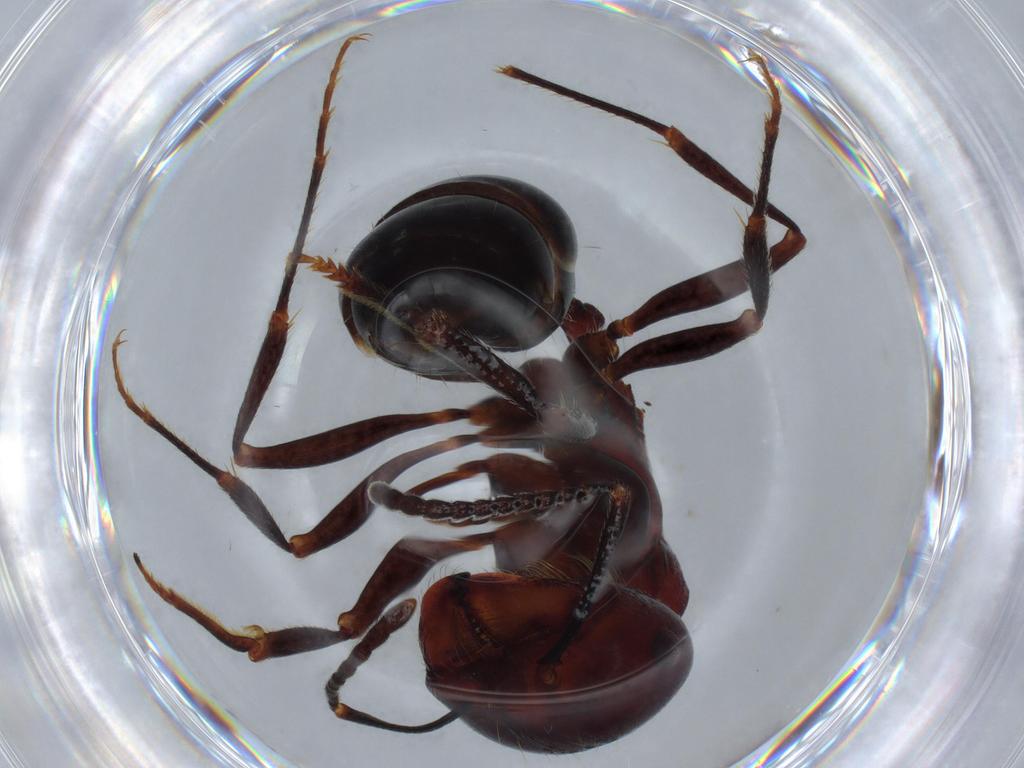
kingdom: Animalia
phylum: Arthropoda
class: Insecta
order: Hymenoptera
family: Formicidae
